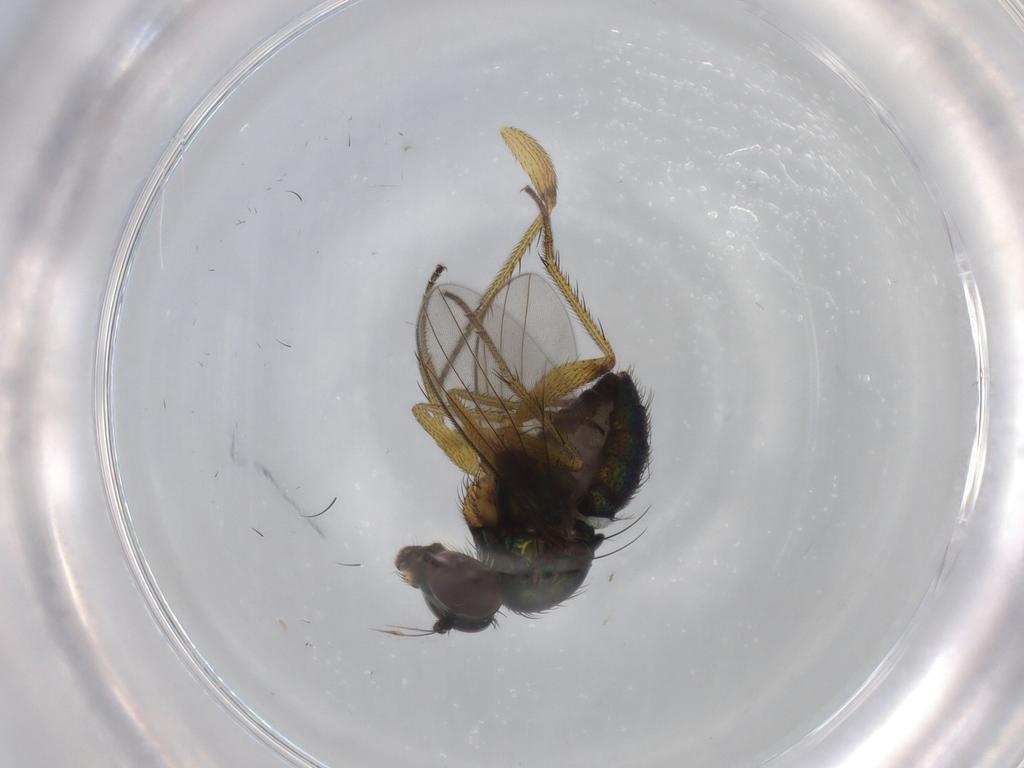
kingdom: Animalia
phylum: Arthropoda
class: Insecta
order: Diptera
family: Dolichopodidae
